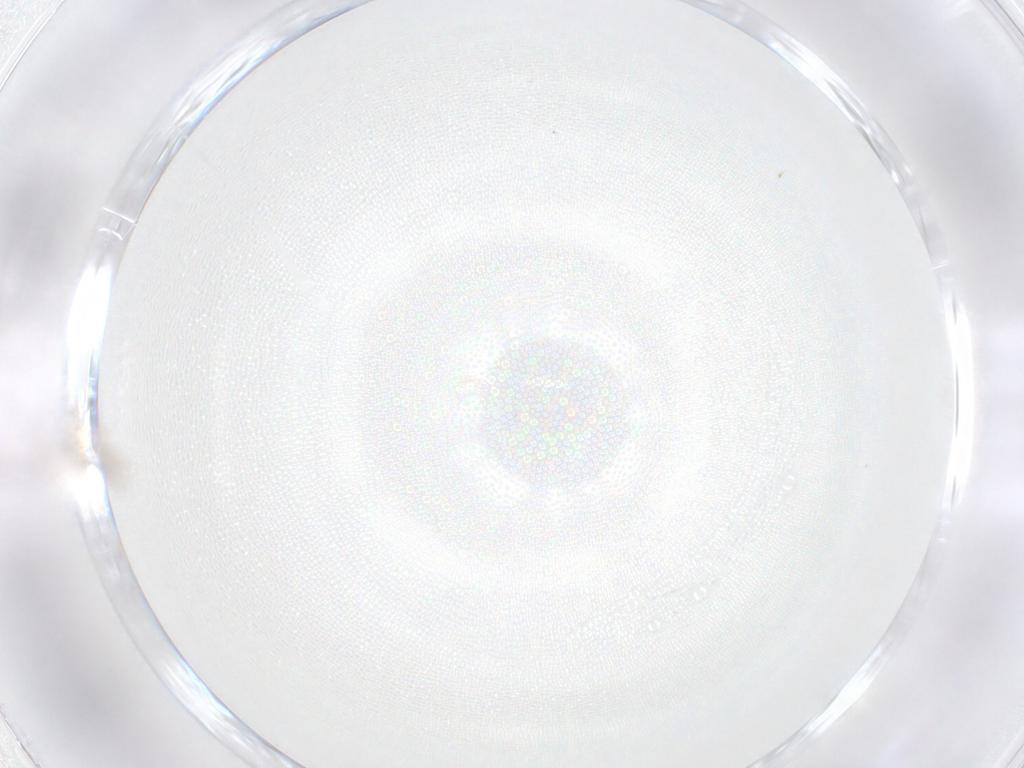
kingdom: Animalia
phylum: Arthropoda
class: Insecta
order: Diptera
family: Cecidomyiidae
